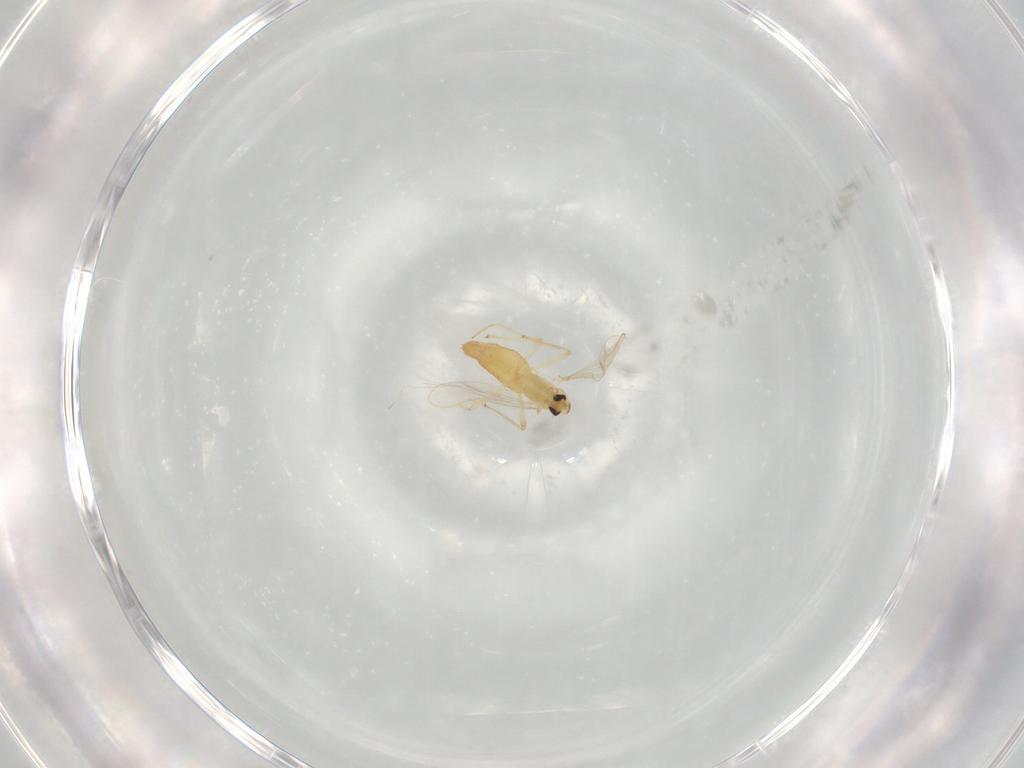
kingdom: Animalia
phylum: Arthropoda
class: Insecta
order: Diptera
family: Chironomidae
